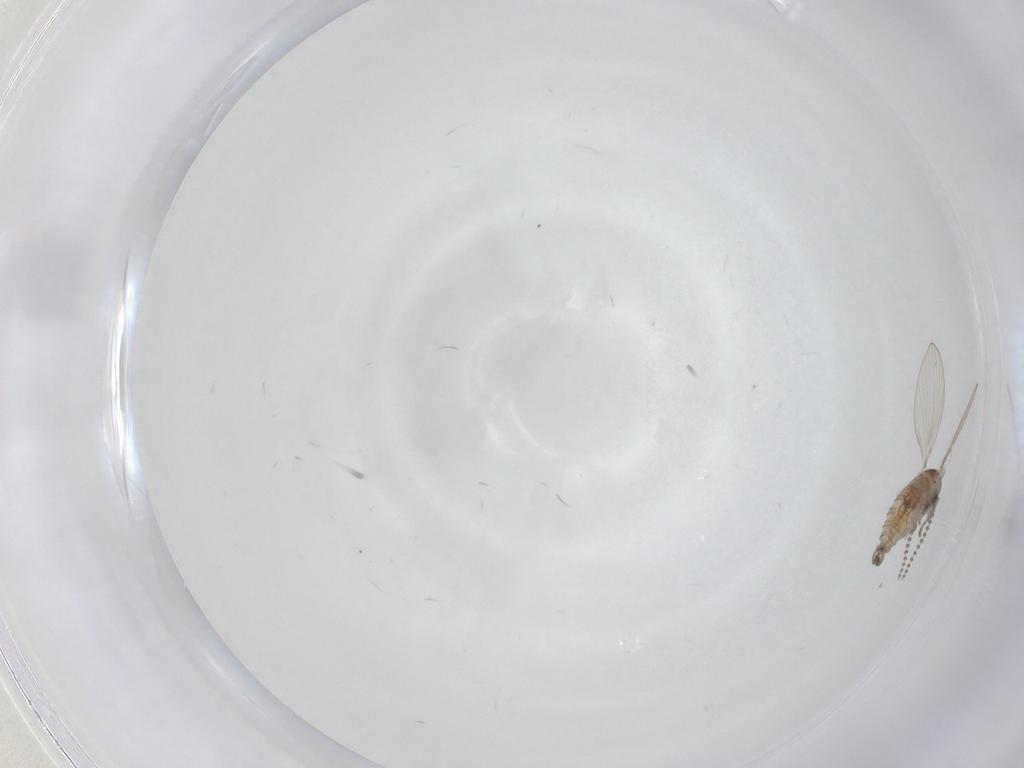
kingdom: Animalia
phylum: Arthropoda
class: Insecta
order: Diptera
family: Psychodidae
